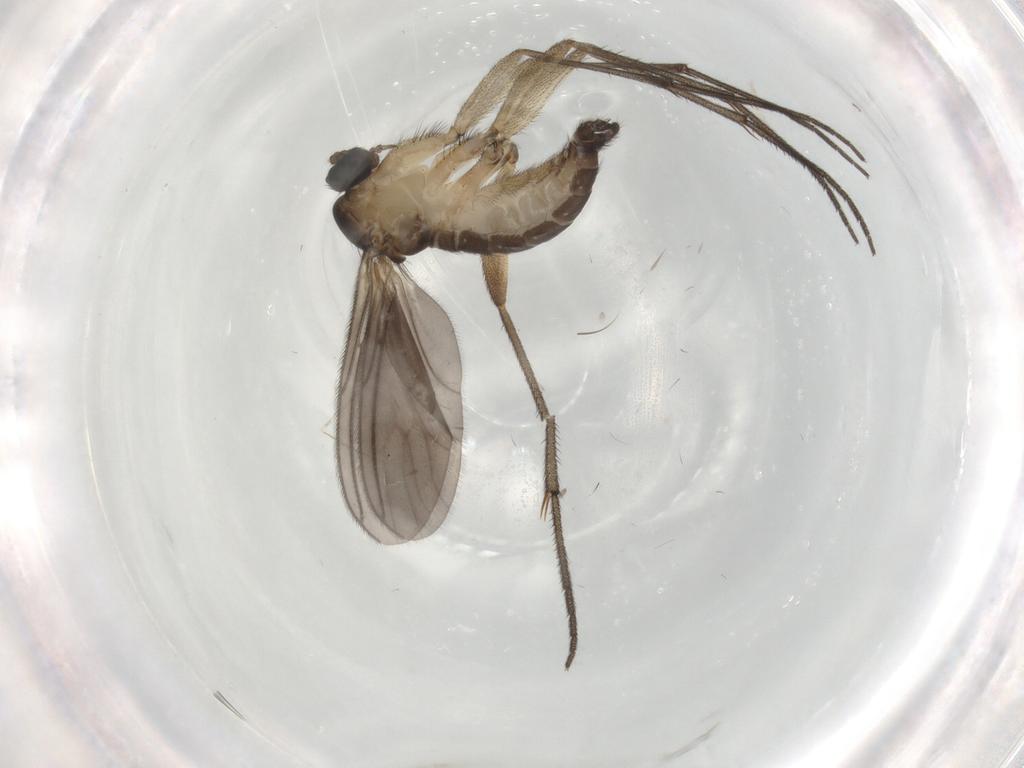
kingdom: Animalia
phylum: Arthropoda
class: Insecta
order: Diptera
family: Sciaridae
